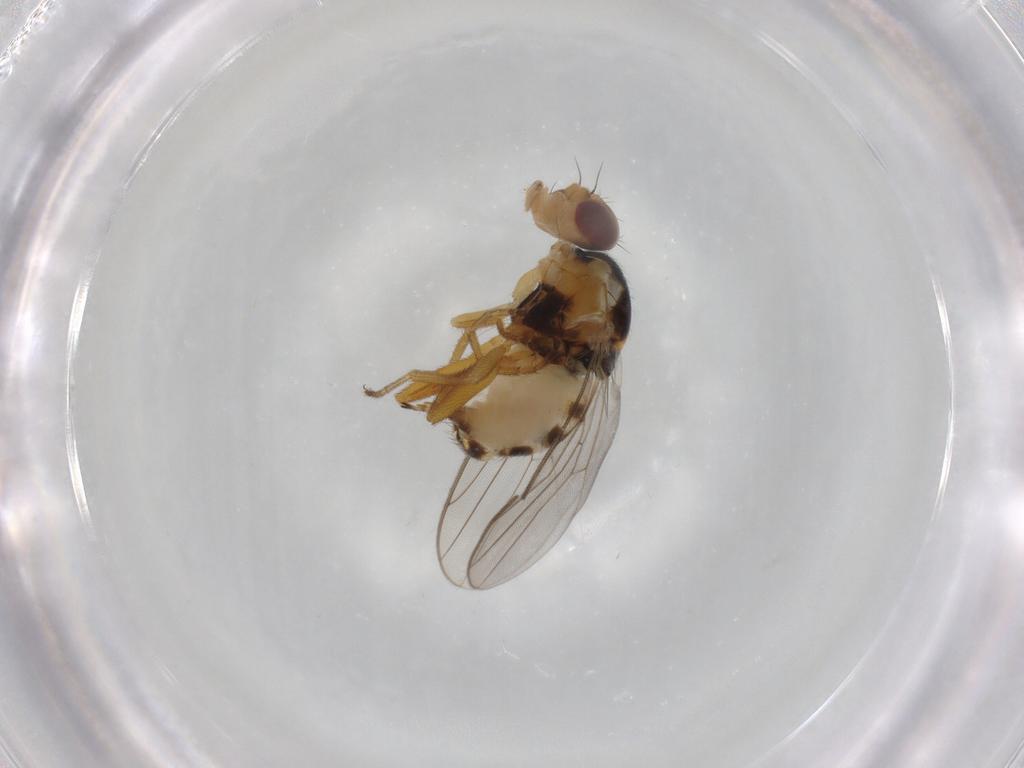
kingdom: Animalia
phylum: Arthropoda
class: Insecta
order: Diptera
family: Chloropidae
